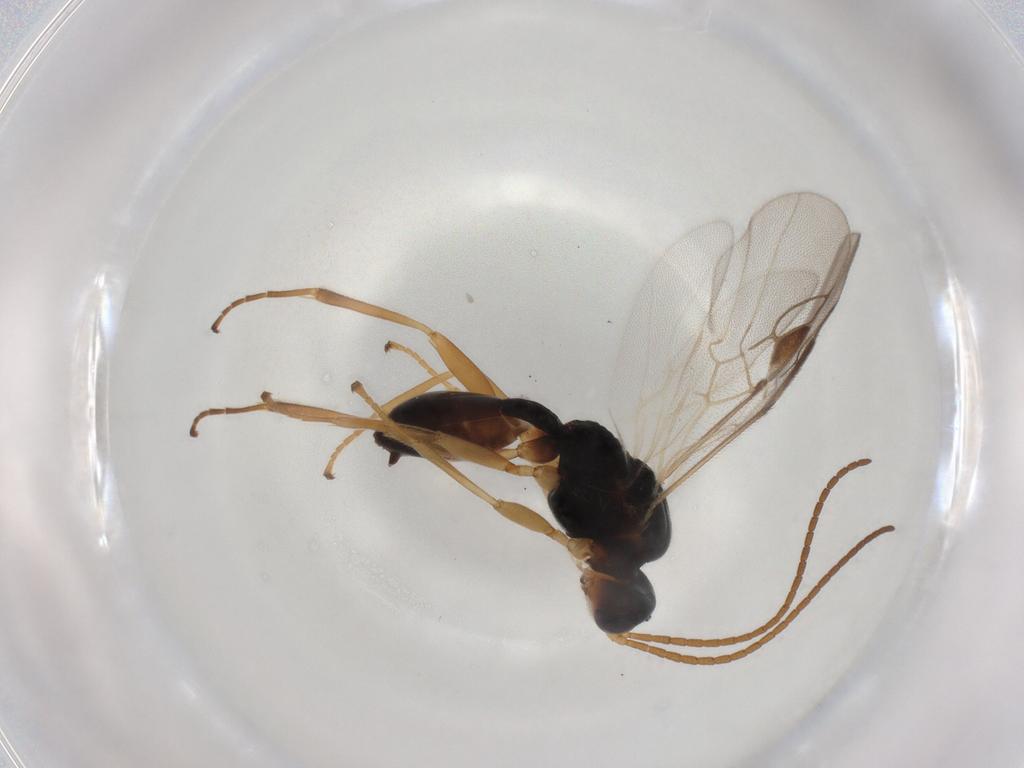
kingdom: Animalia
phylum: Arthropoda
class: Insecta
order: Hymenoptera
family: Braconidae
